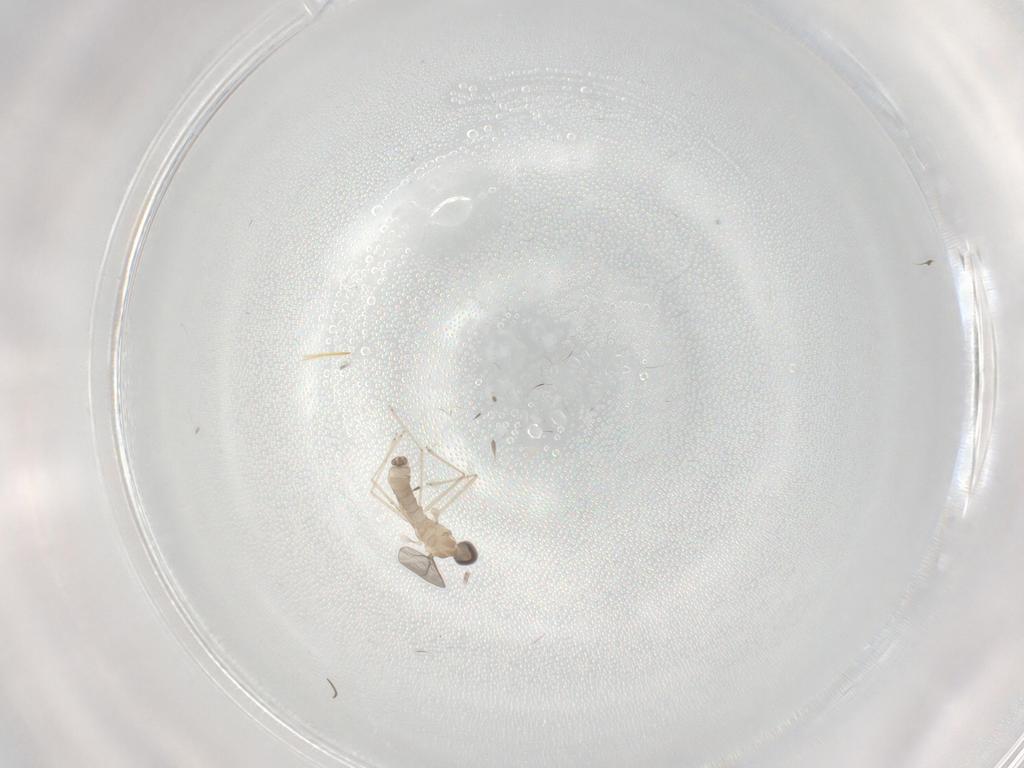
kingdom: Animalia
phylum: Arthropoda
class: Insecta
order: Diptera
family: Cecidomyiidae
